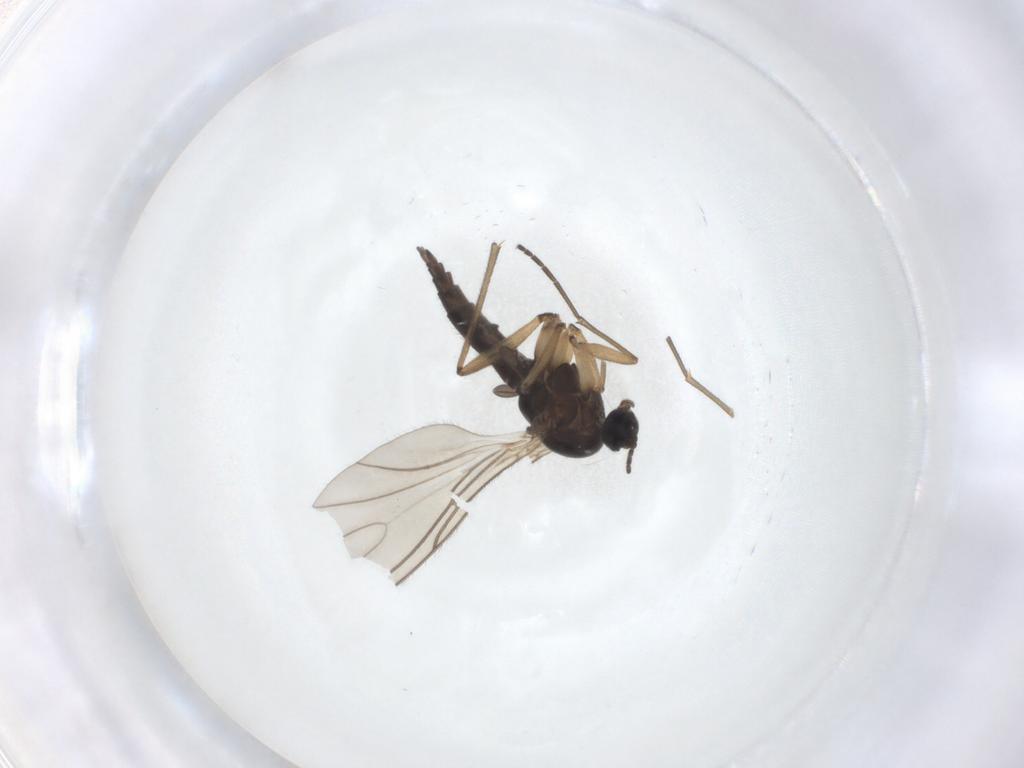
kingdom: Animalia
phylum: Arthropoda
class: Insecta
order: Diptera
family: Sciaridae
